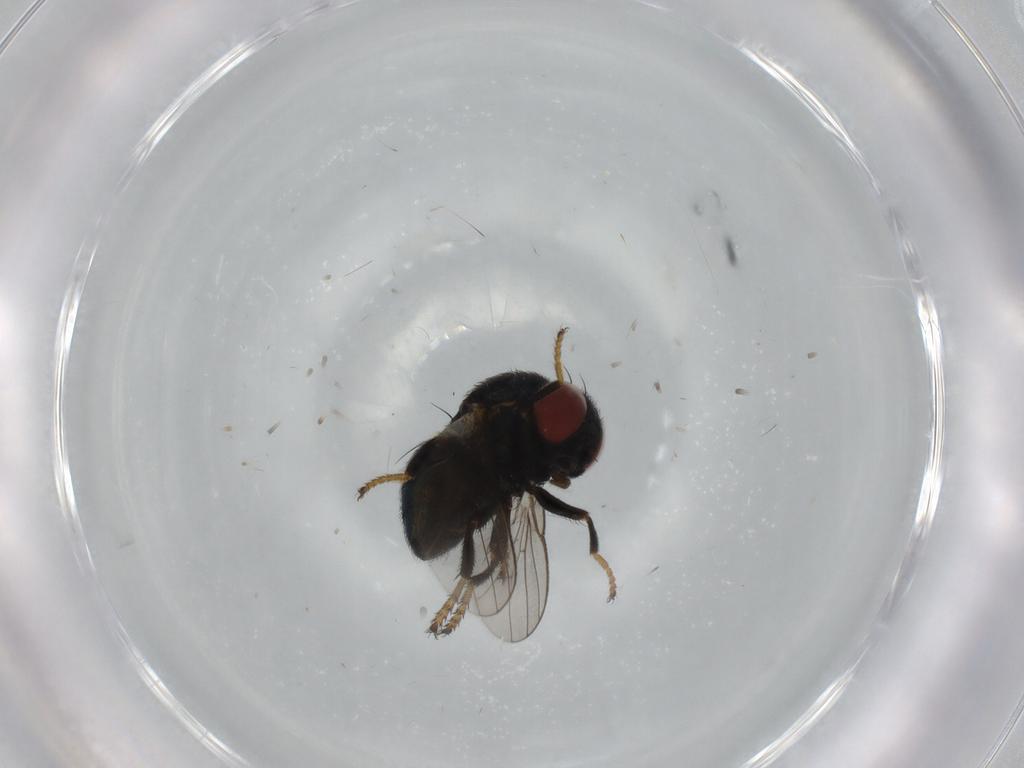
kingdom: Animalia
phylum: Arthropoda
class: Insecta
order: Diptera
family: Chamaemyiidae
